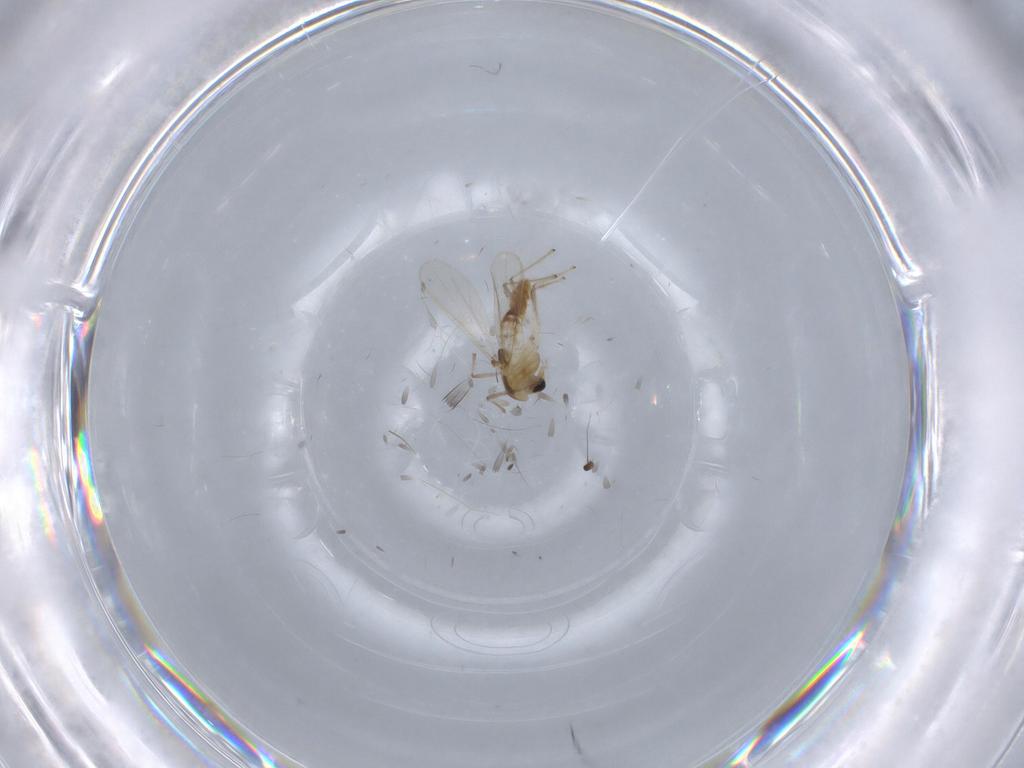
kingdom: Animalia
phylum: Arthropoda
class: Insecta
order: Diptera
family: Chironomidae
